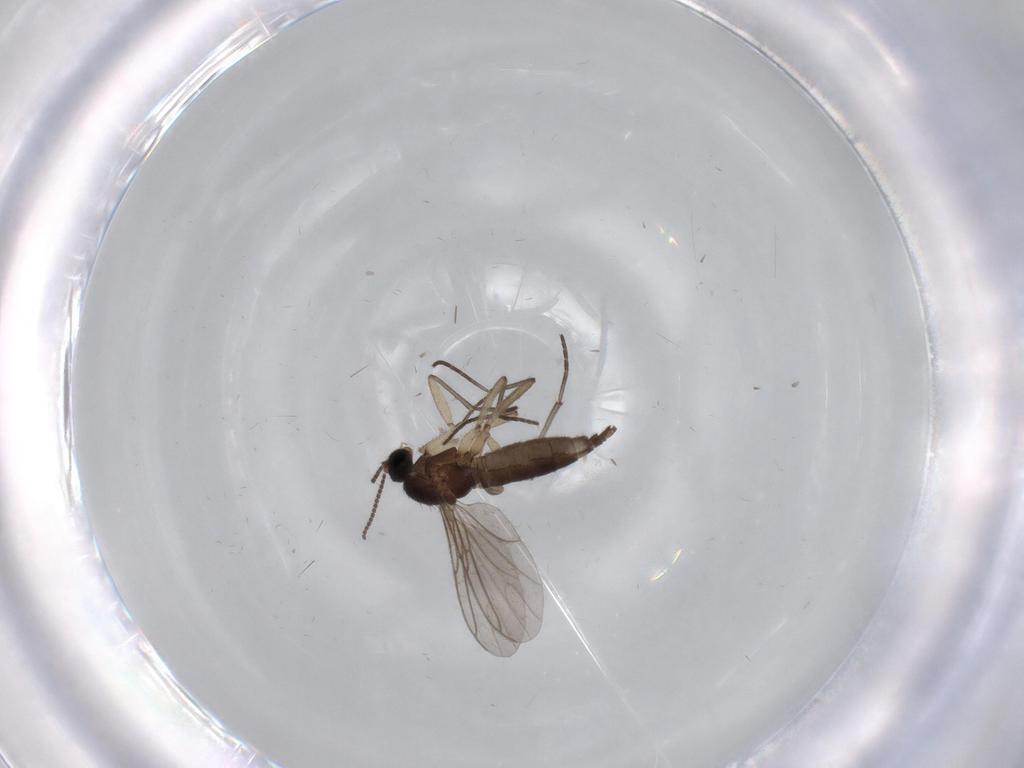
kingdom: Animalia
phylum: Arthropoda
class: Insecta
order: Diptera
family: Sciaridae
